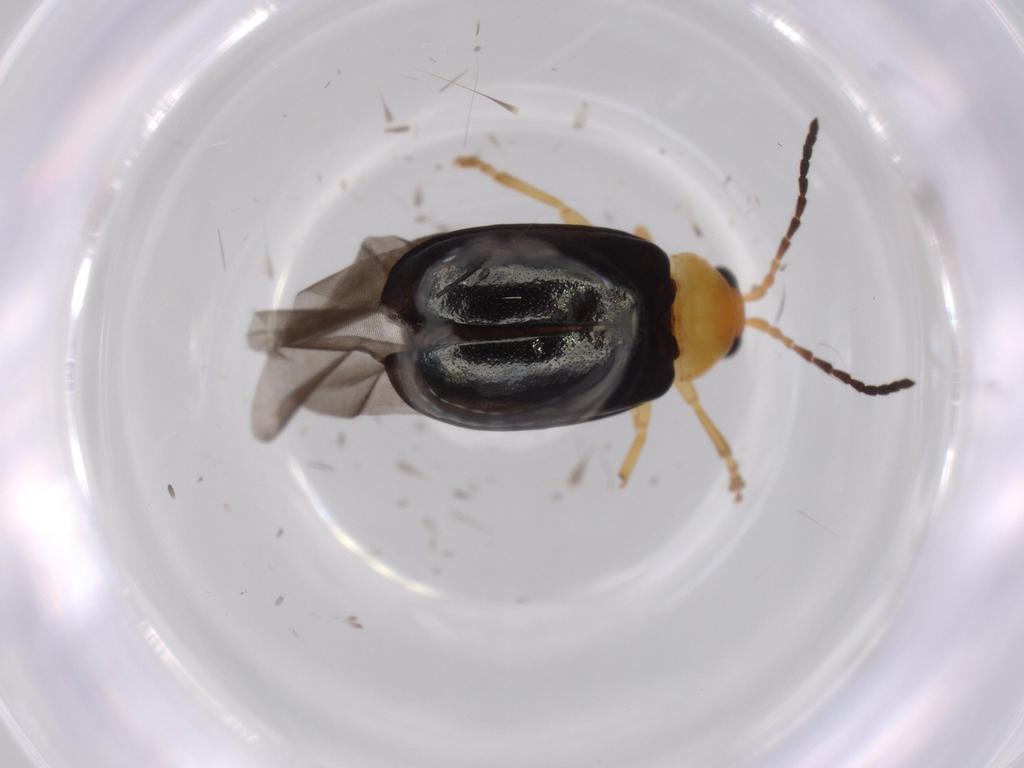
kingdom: Animalia
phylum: Arthropoda
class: Insecta
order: Coleoptera
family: Chrysomelidae
